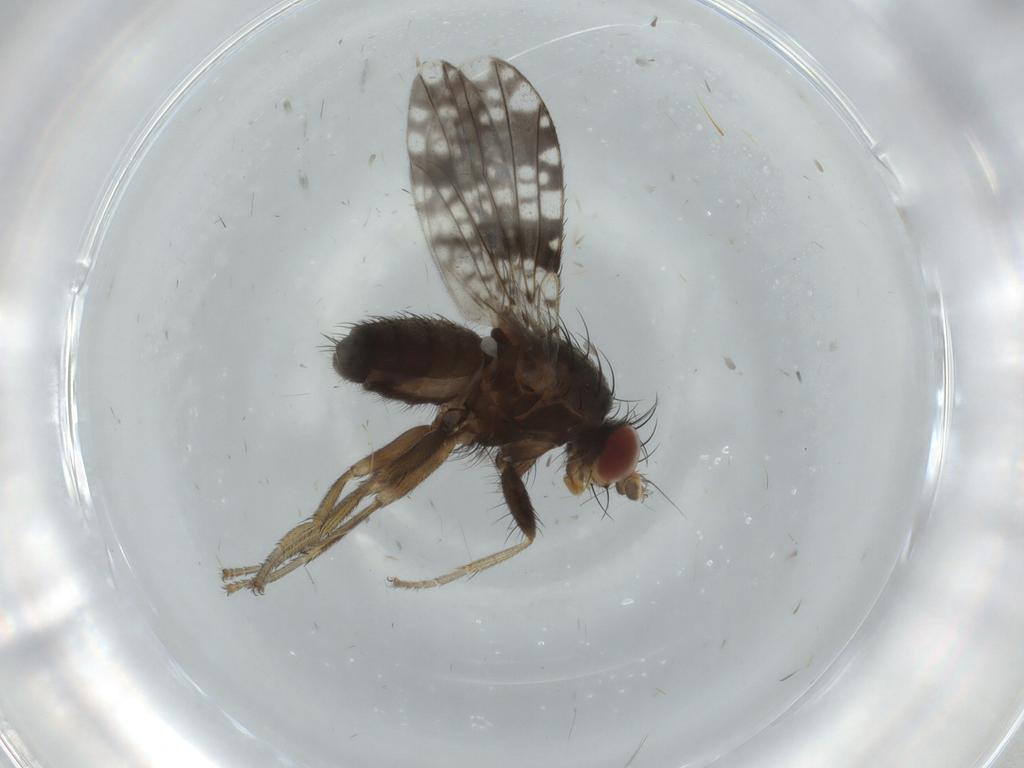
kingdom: Animalia
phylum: Arthropoda
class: Insecta
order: Diptera
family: Tephritidae
